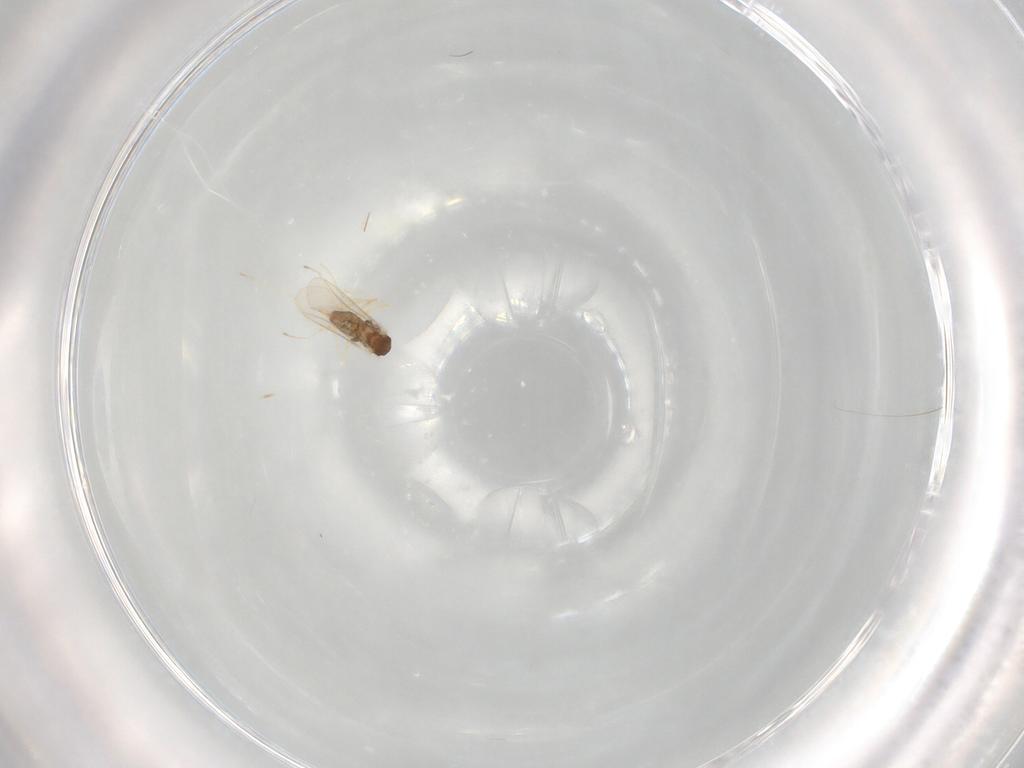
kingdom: Animalia
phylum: Arthropoda
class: Insecta
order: Diptera
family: Cecidomyiidae
